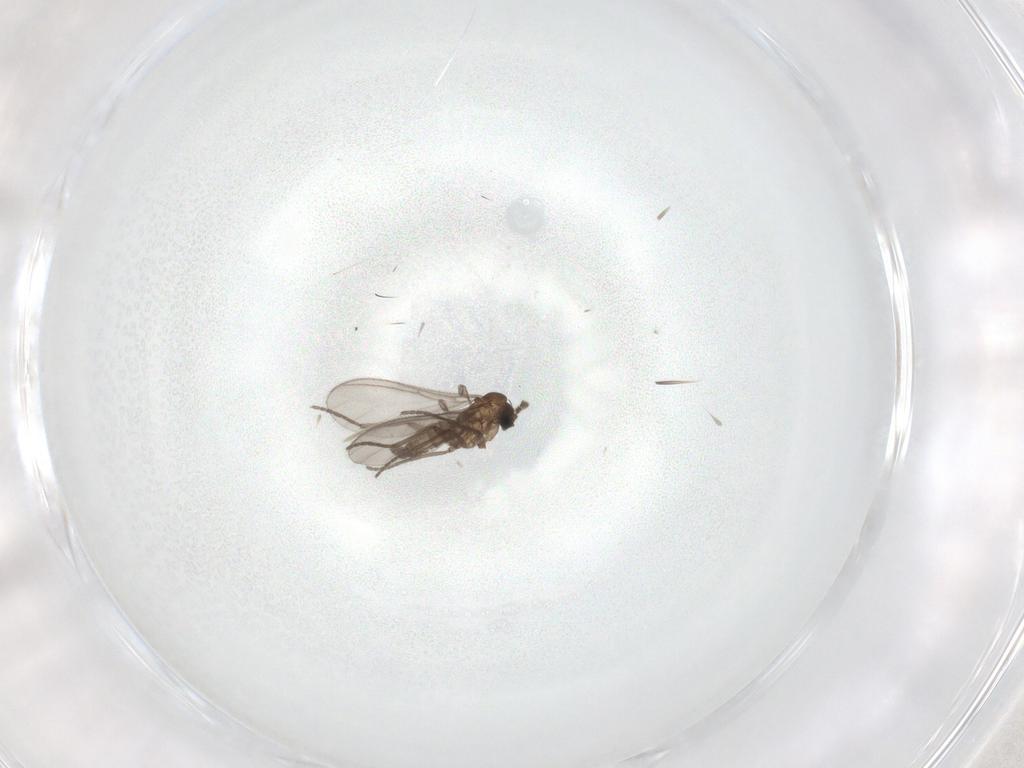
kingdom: Animalia
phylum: Arthropoda
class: Insecta
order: Diptera
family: Sciaridae
